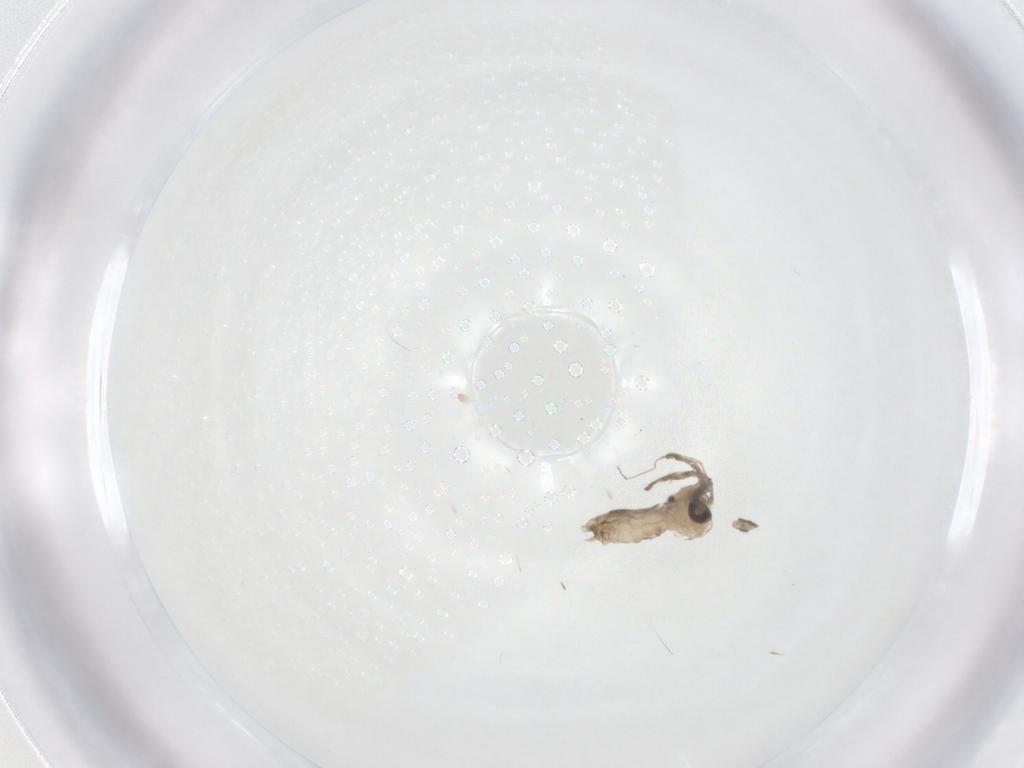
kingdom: Animalia
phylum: Arthropoda
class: Insecta
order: Diptera
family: Psychodidae
